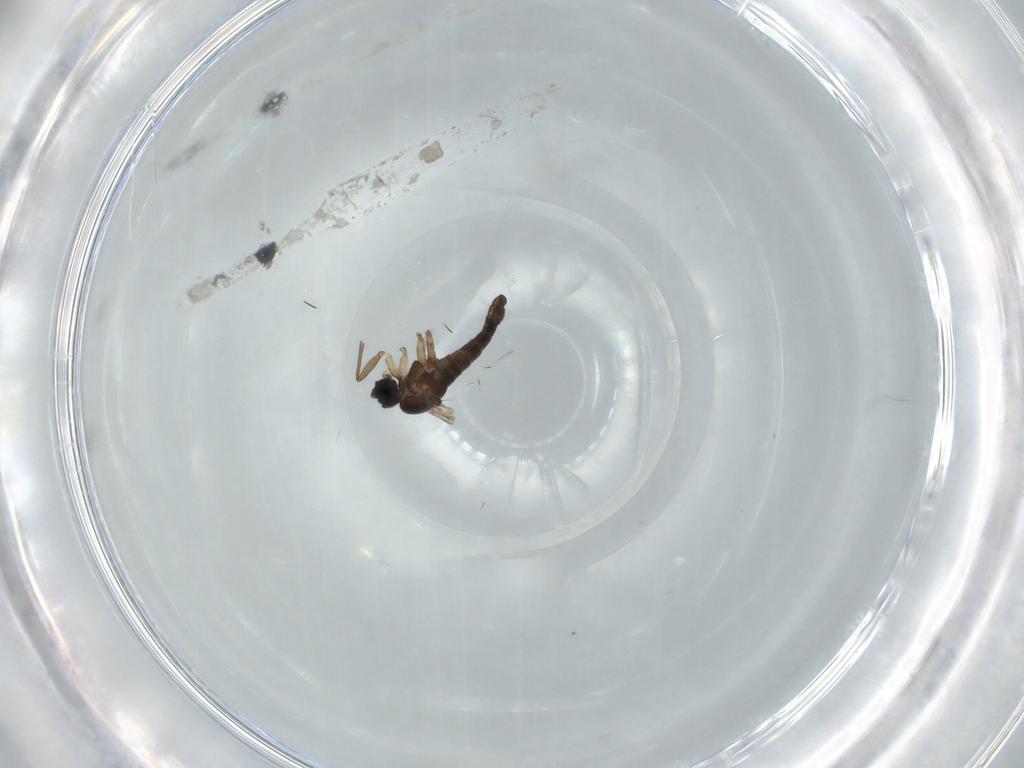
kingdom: Animalia
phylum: Arthropoda
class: Insecta
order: Diptera
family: Sciaridae
